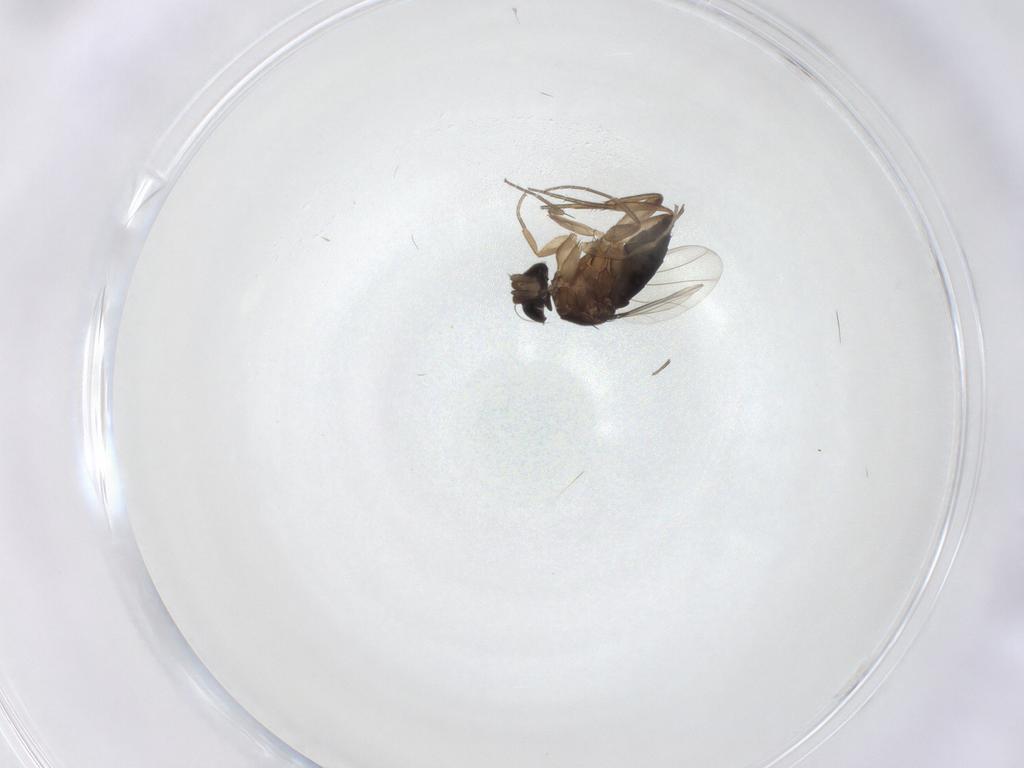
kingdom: Animalia
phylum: Arthropoda
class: Insecta
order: Diptera
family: Phoridae
